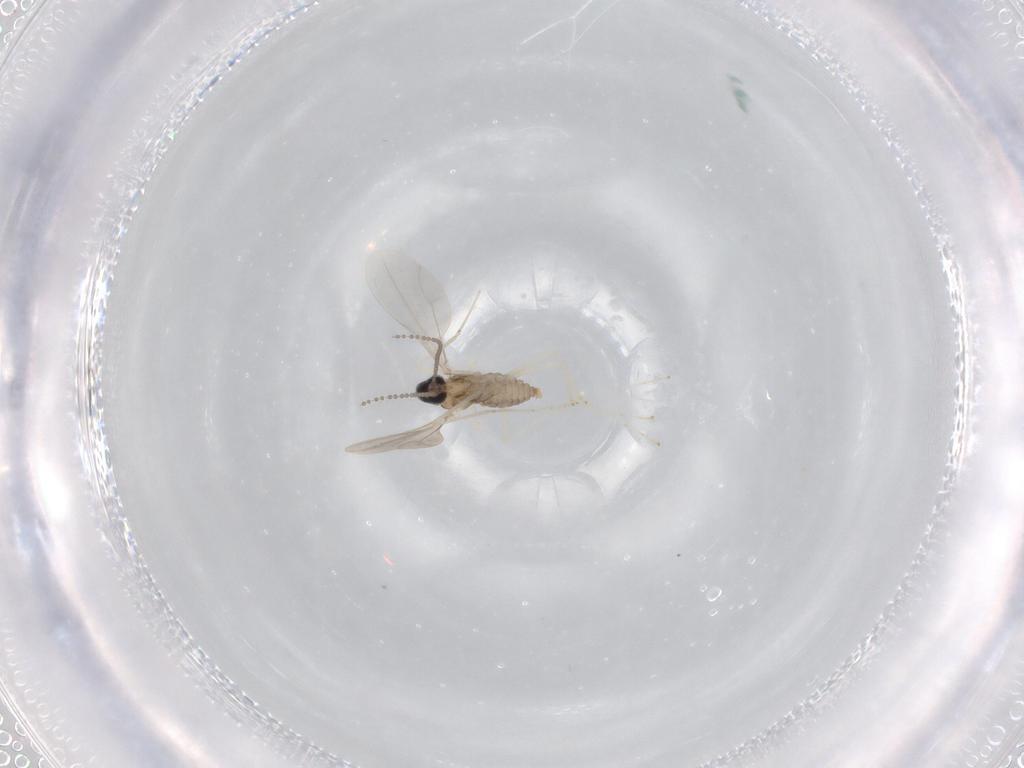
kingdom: Animalia
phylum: Arthropoda
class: Insecta
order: Diptera
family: Cecidomyiidae
